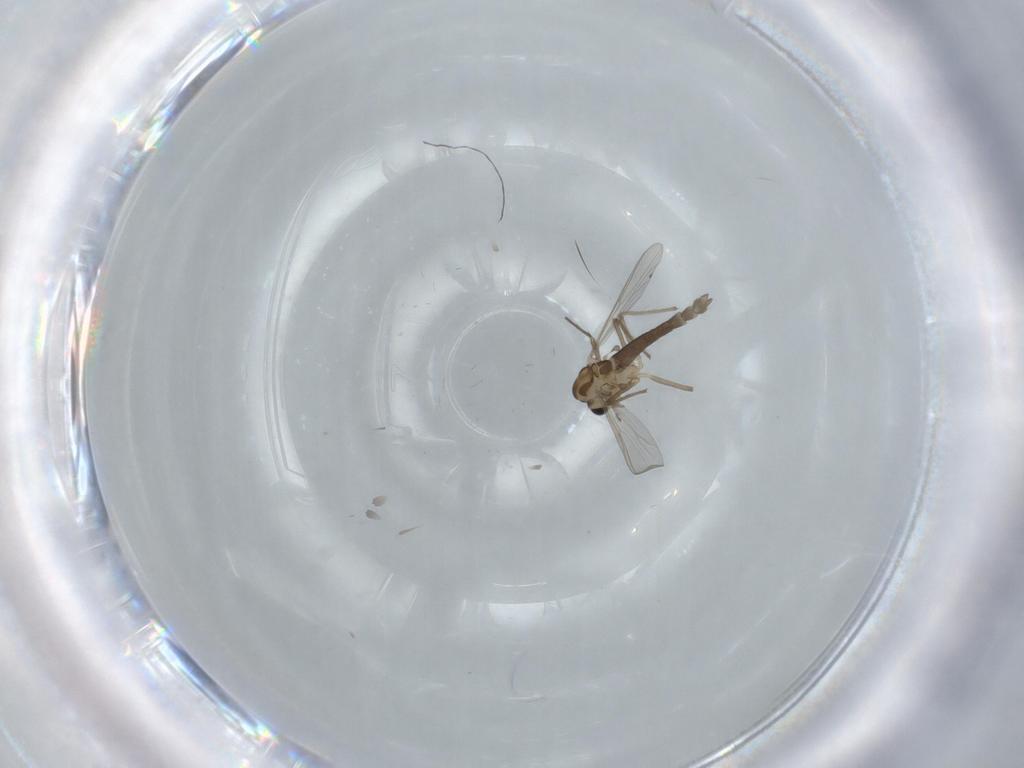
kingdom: Animalia
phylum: Arthropoda
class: Insecta
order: Diptera
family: Chironomidae
